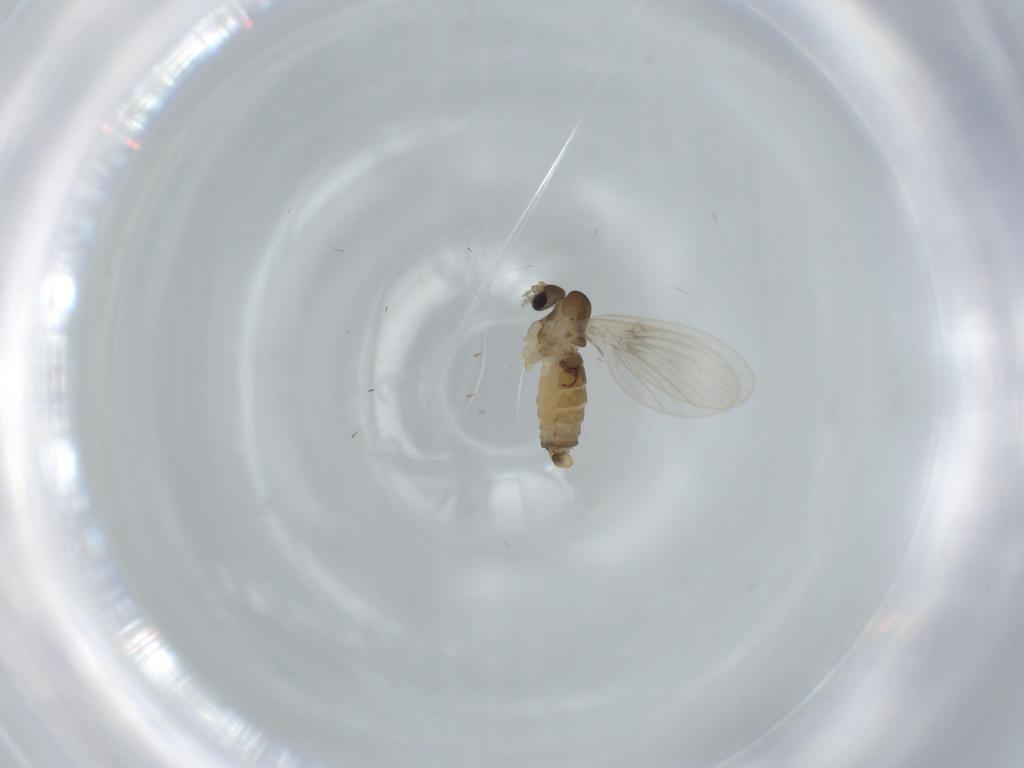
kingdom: Animalia
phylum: Arthropoda
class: Insecta
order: Diptera
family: Psychodidae
